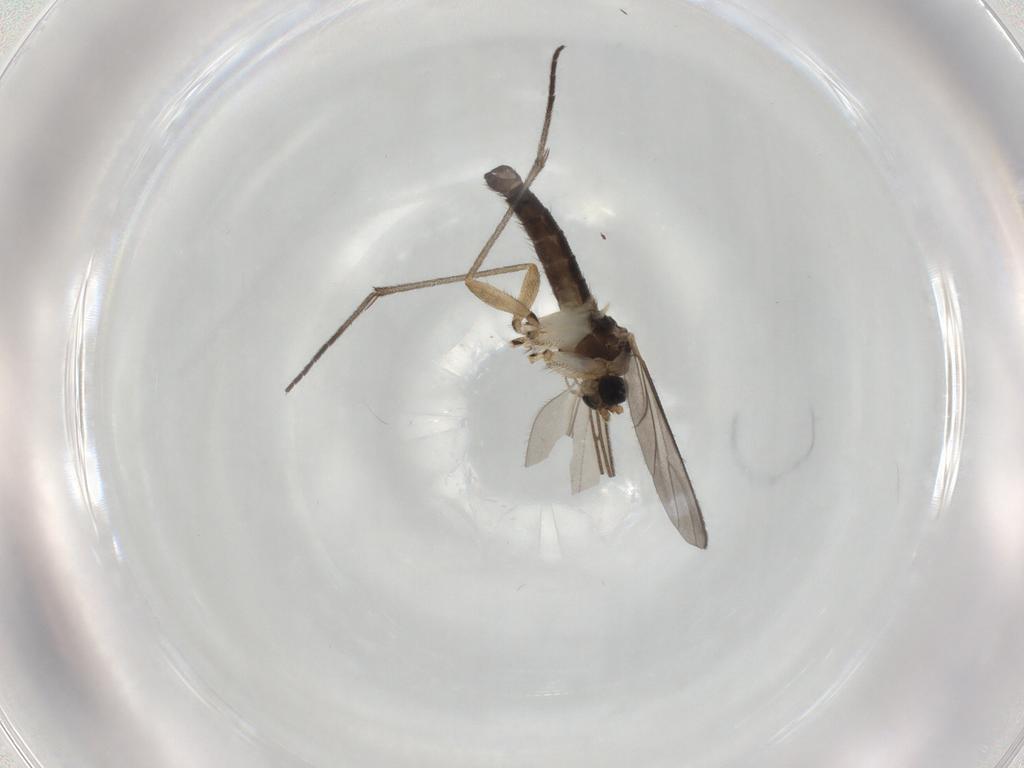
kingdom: Animalia
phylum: Arthropoda
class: Insecta
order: Diptera
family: Sciaridae
